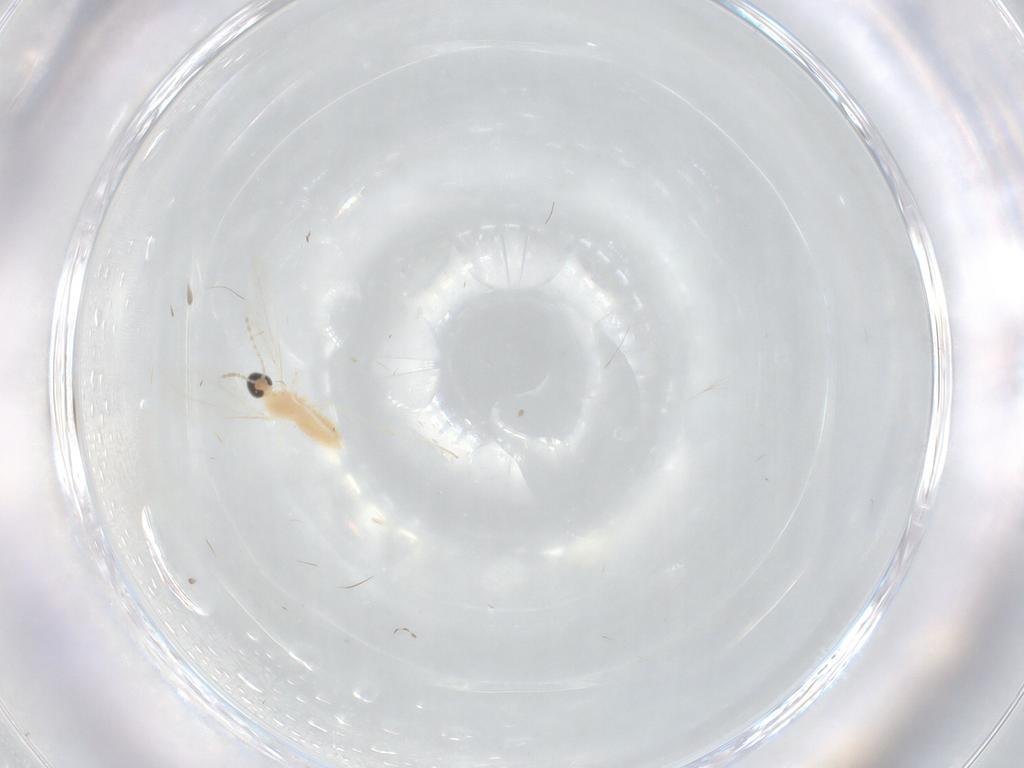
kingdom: Animalia
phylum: Arthropoda
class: Insecta
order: Diptera
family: Cecidomyiidae
